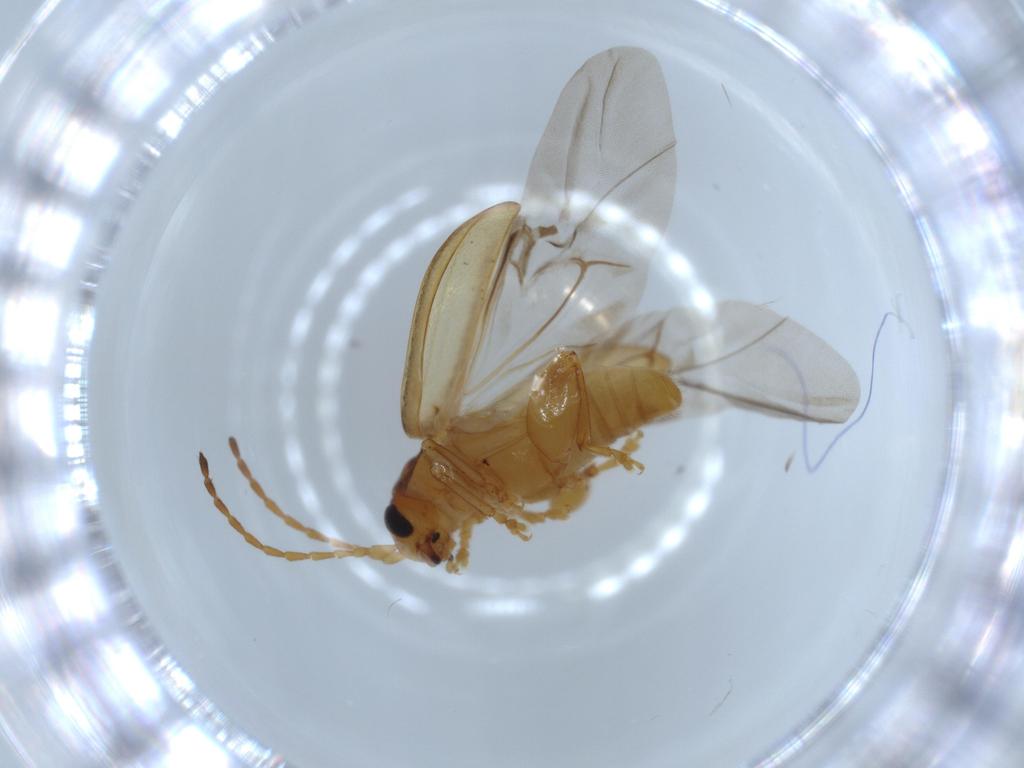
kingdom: Animalia
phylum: Arthropoda
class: Insecta
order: Coleoptera
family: Chrysomelidae
